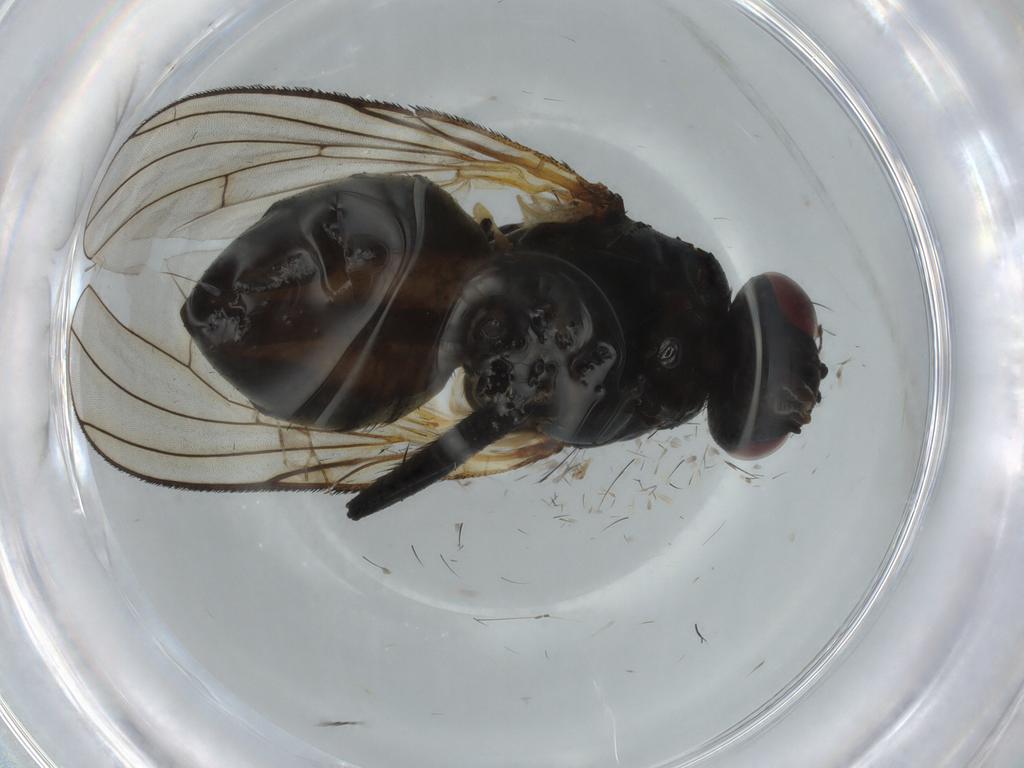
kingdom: Animalia
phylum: Arthropoda
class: Insecta
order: Diptera
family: Muscidae
